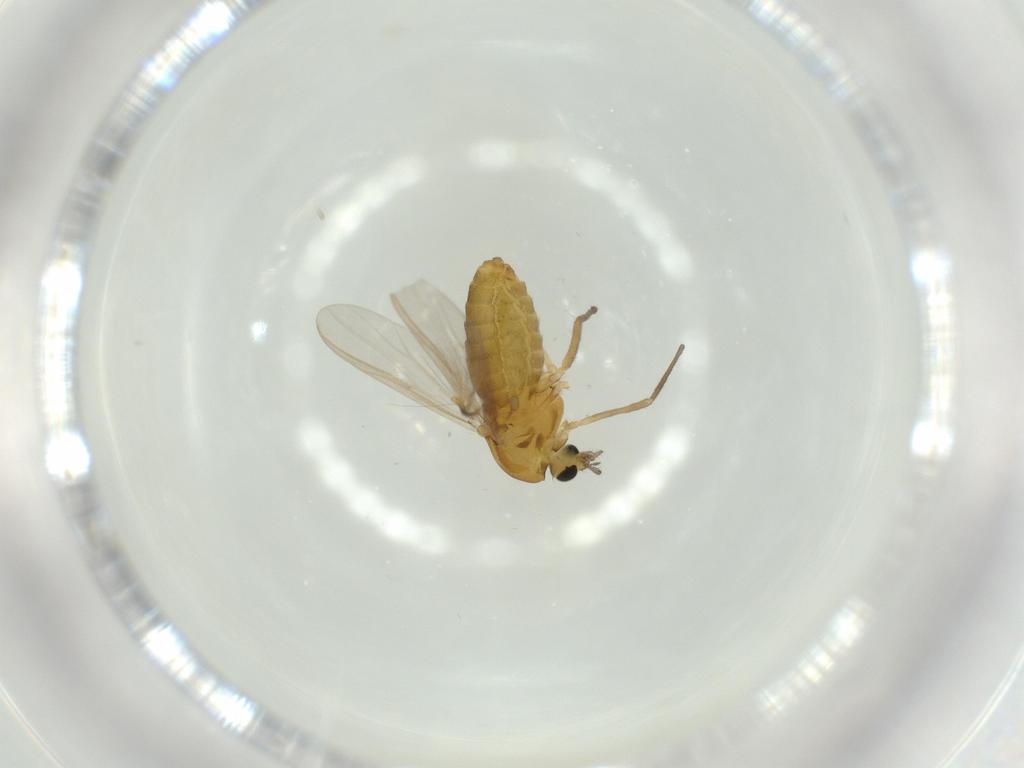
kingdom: Animalia
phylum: Arthropoda
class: Insecta
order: Diptera
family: Chironomidae
